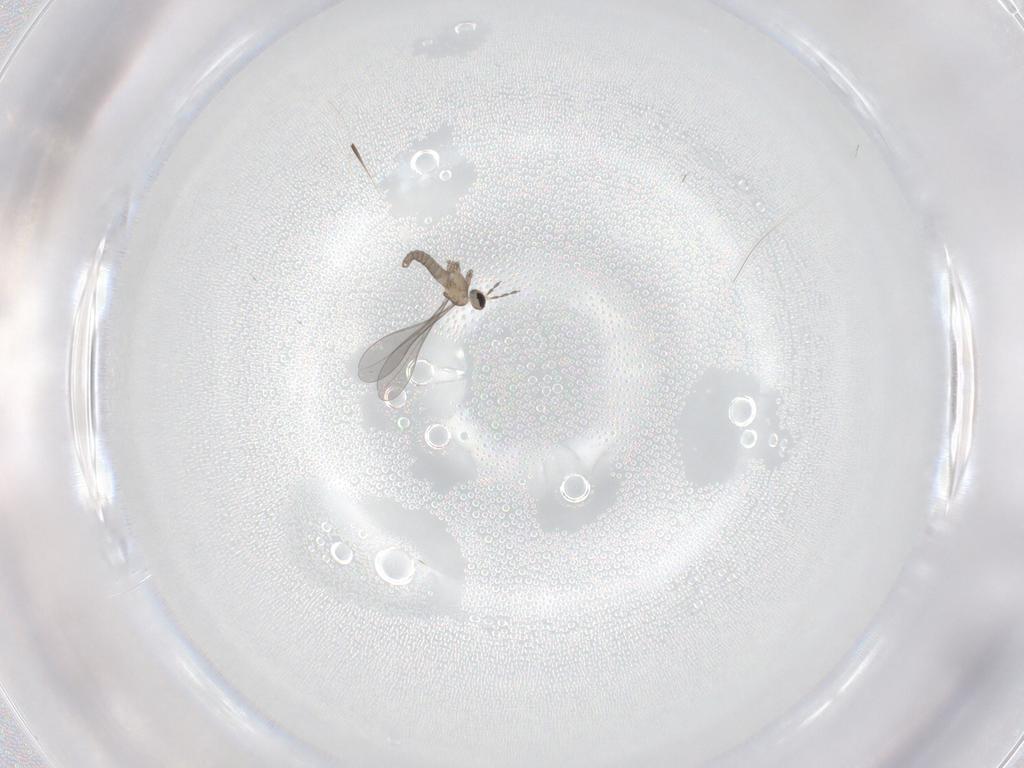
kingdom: Animalia
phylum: Arthropoda
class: Insecta
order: Diptera
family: Cecidomyiidae
